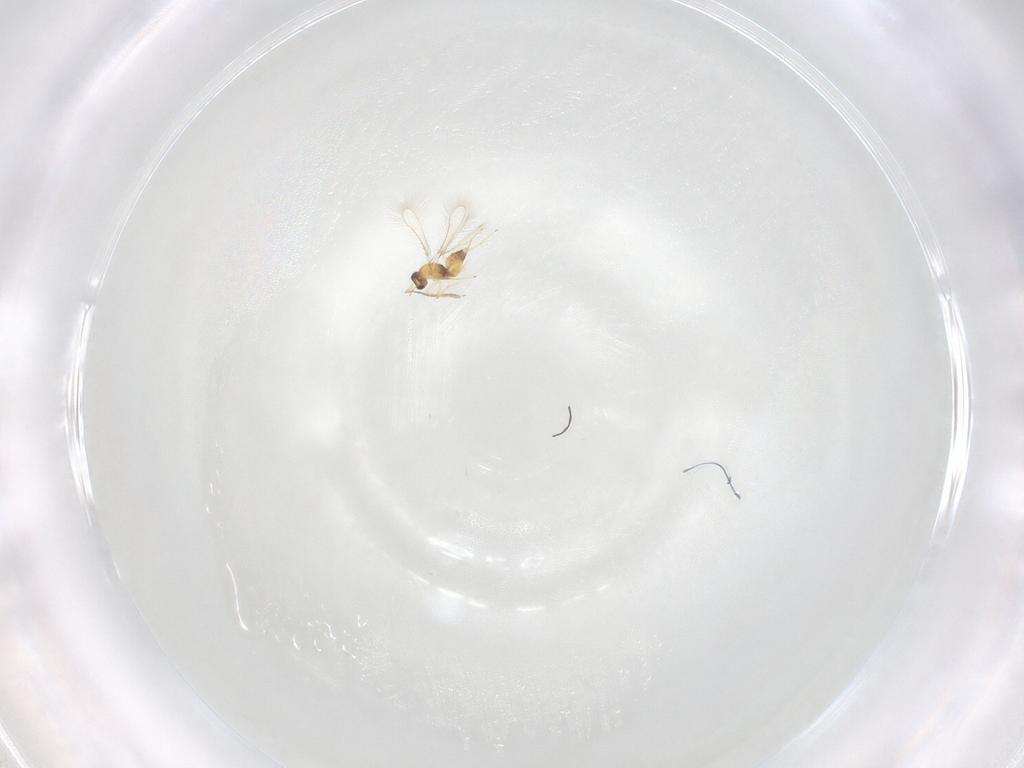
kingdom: Animalia
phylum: Arthropoda
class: Insecta
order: Hymenoptera
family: Mymaridae
